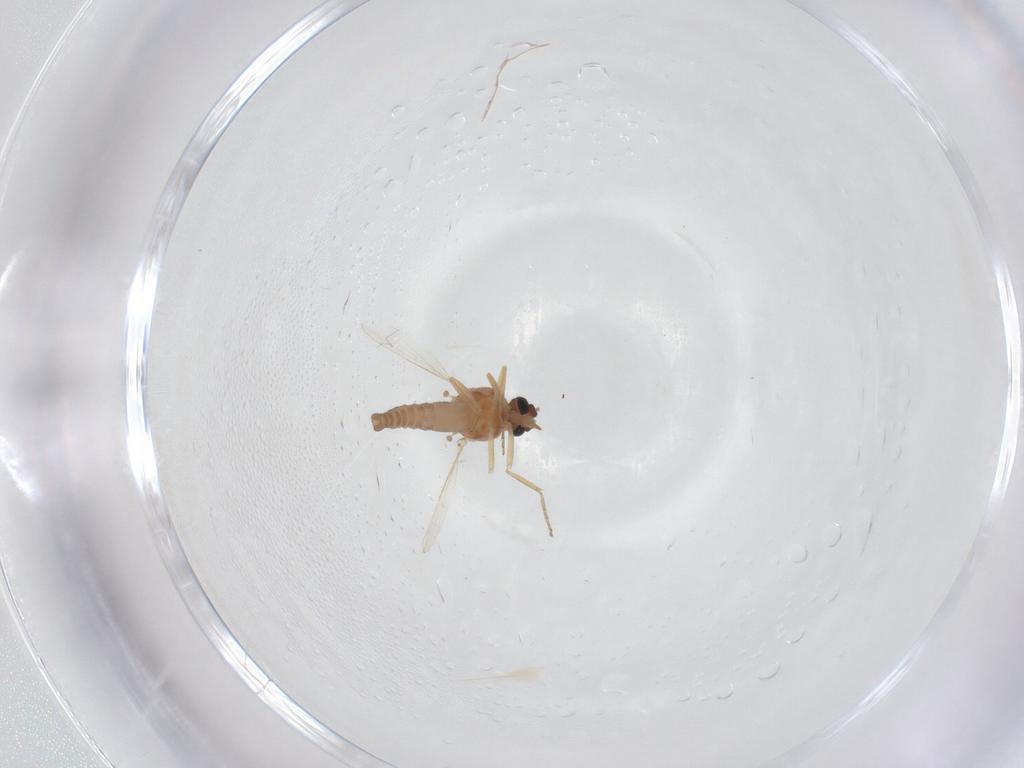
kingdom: Animalia
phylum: Arthropoda
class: Insecta
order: Diptera
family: Ceratopogonidae
